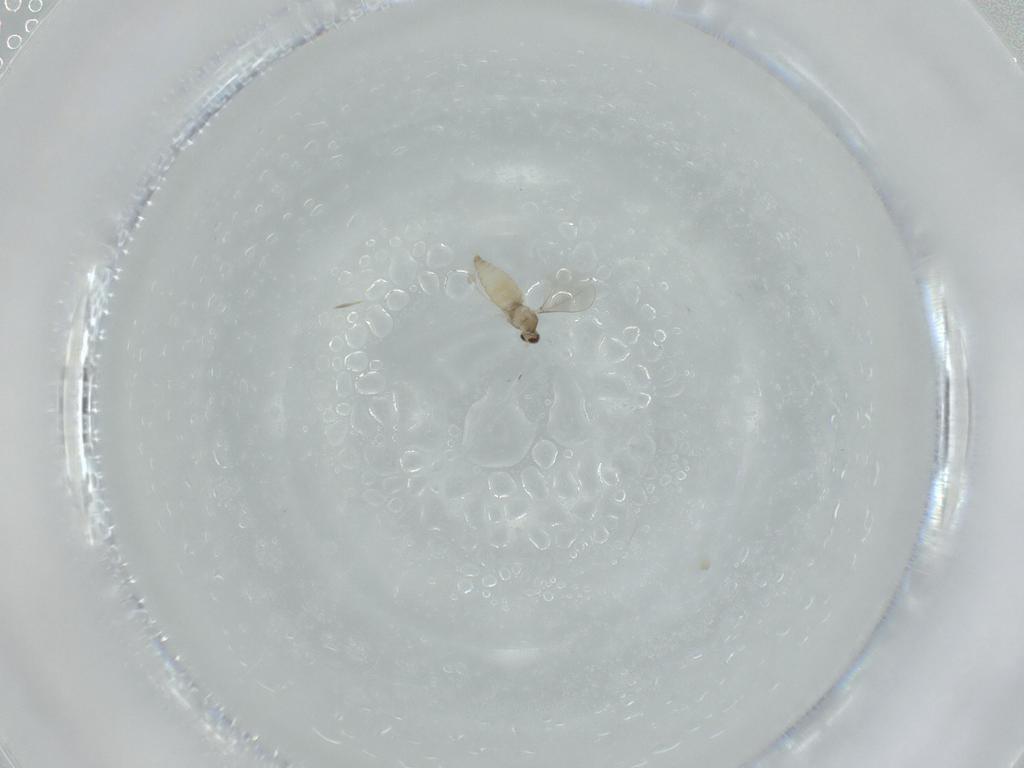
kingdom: Animalia
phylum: Arthropoda
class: Insecta
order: Diptera
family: Cecidomyiidae
